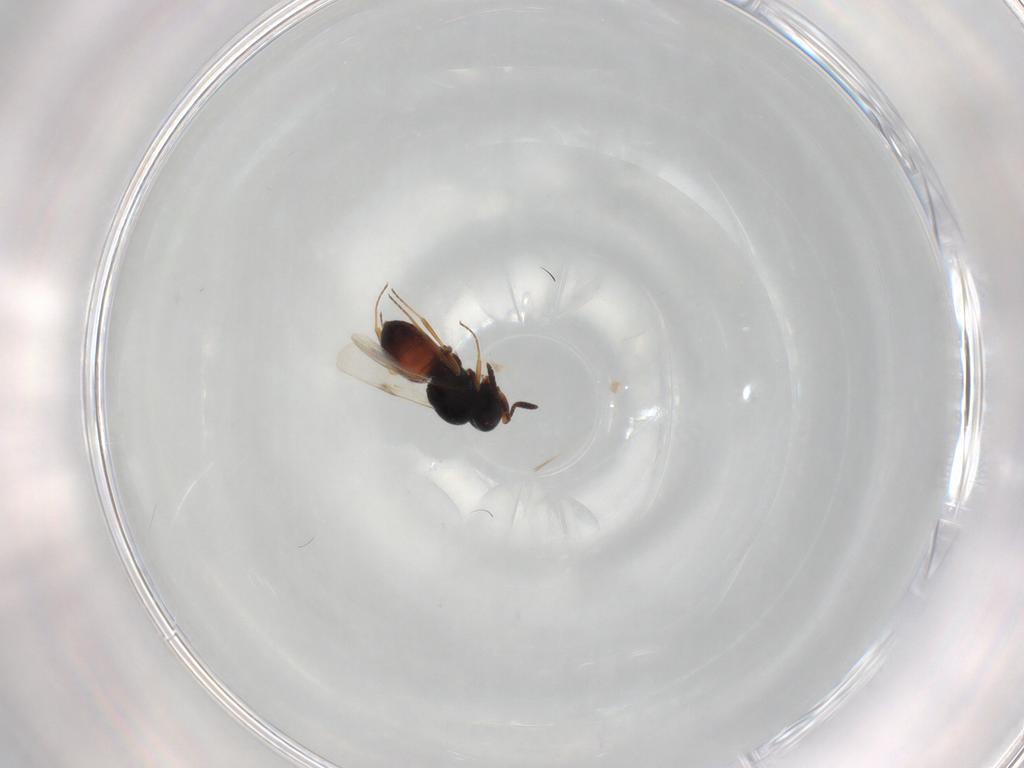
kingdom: Animalia
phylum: Arthropoda
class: Insecta
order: Hymenoptera
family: Scelionidae
